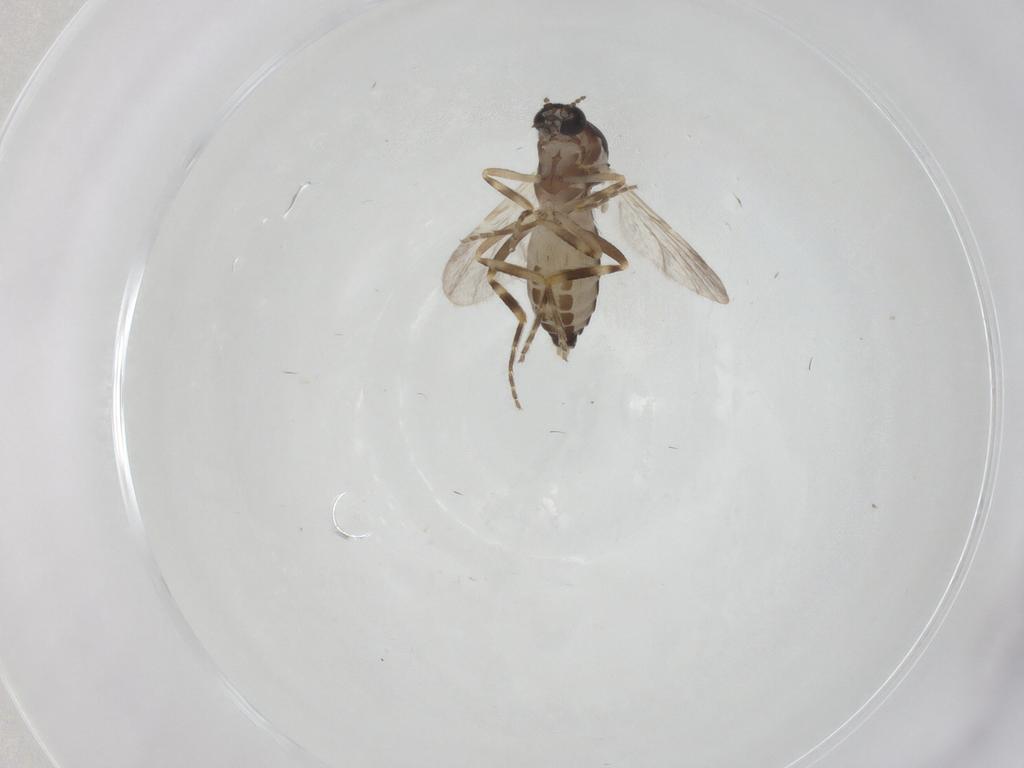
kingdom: Animalia
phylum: Arthropoda
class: Insecta
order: Diptera
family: Ceratopogonidae
